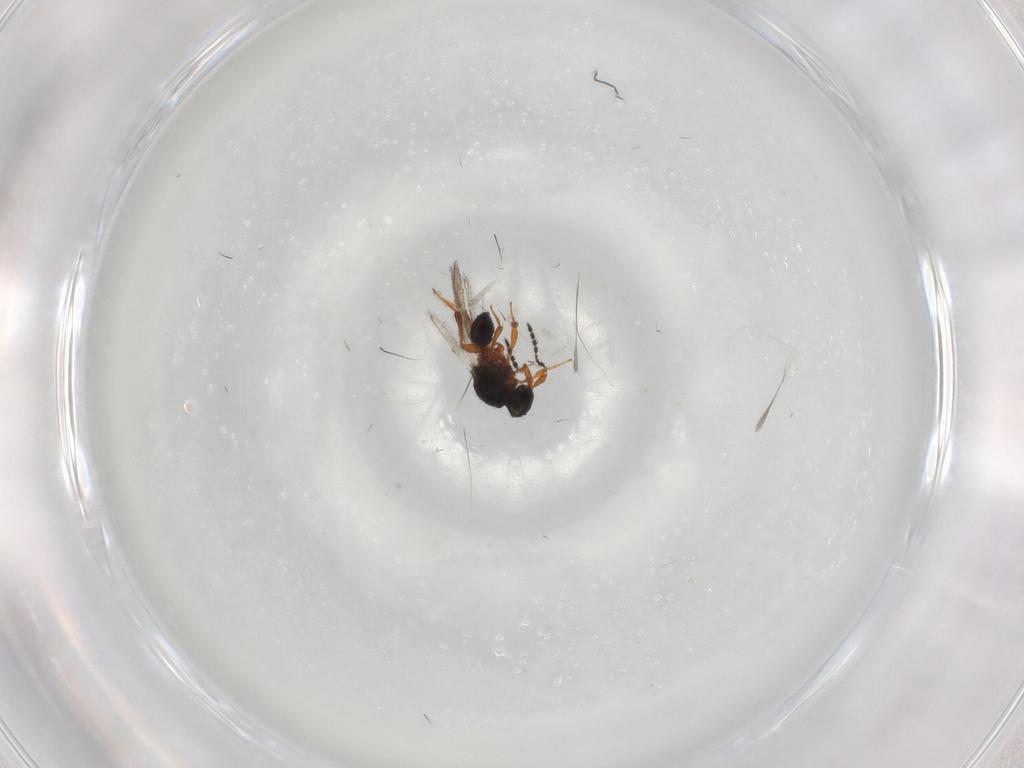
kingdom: Animalia
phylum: Arthropoda
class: Insecta
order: Hymenoptera
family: Platygastridae
